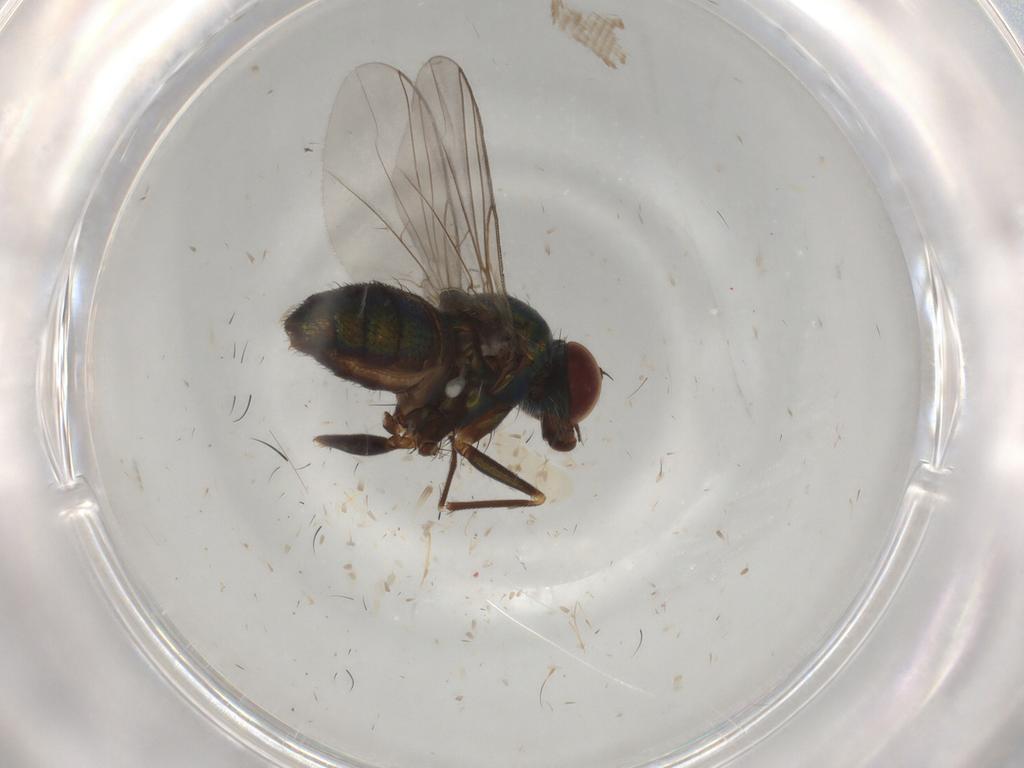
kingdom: Animalia
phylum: Arthropoda
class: Insecta
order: Diptera
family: Dolichopodidae
